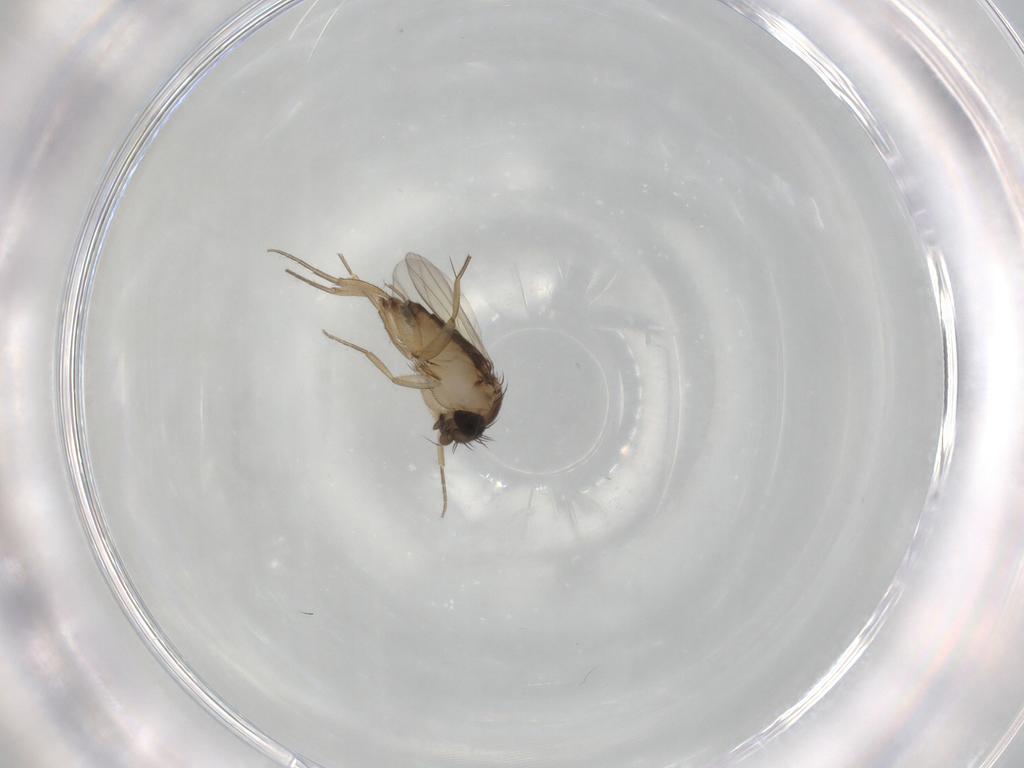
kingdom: Animalia
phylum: Arthropoda
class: Insecta
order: Diptera
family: Phoridae
